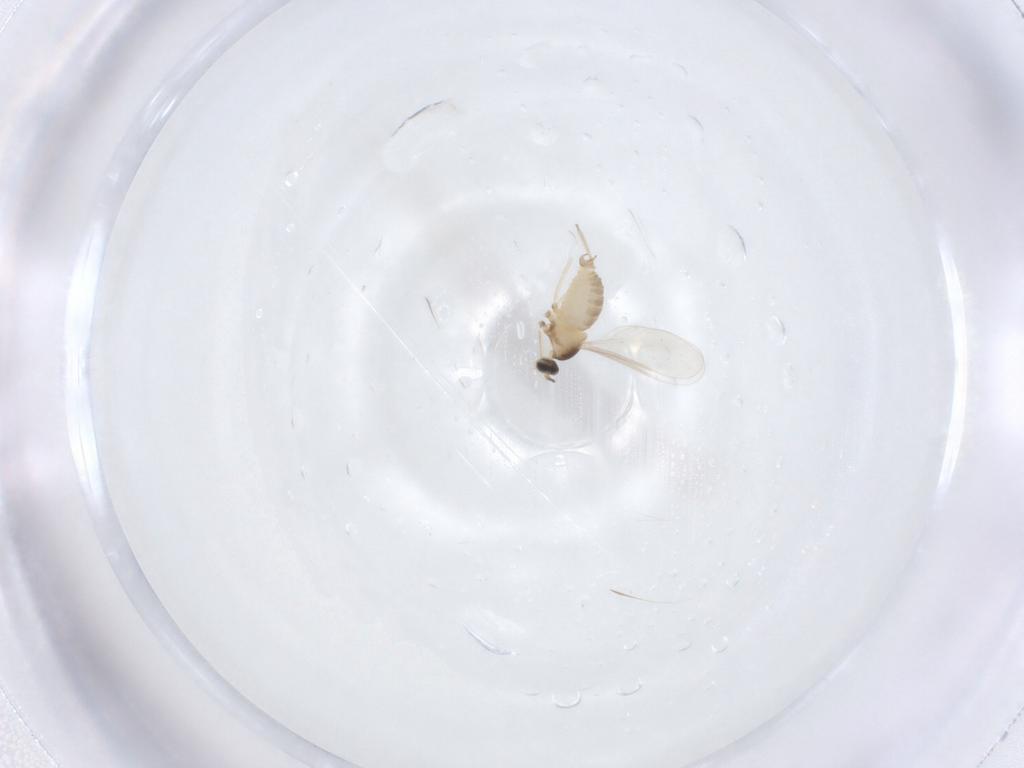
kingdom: Animalia
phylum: Arthropoda
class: Insecta
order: Diptera
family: Cecidomyiidae
